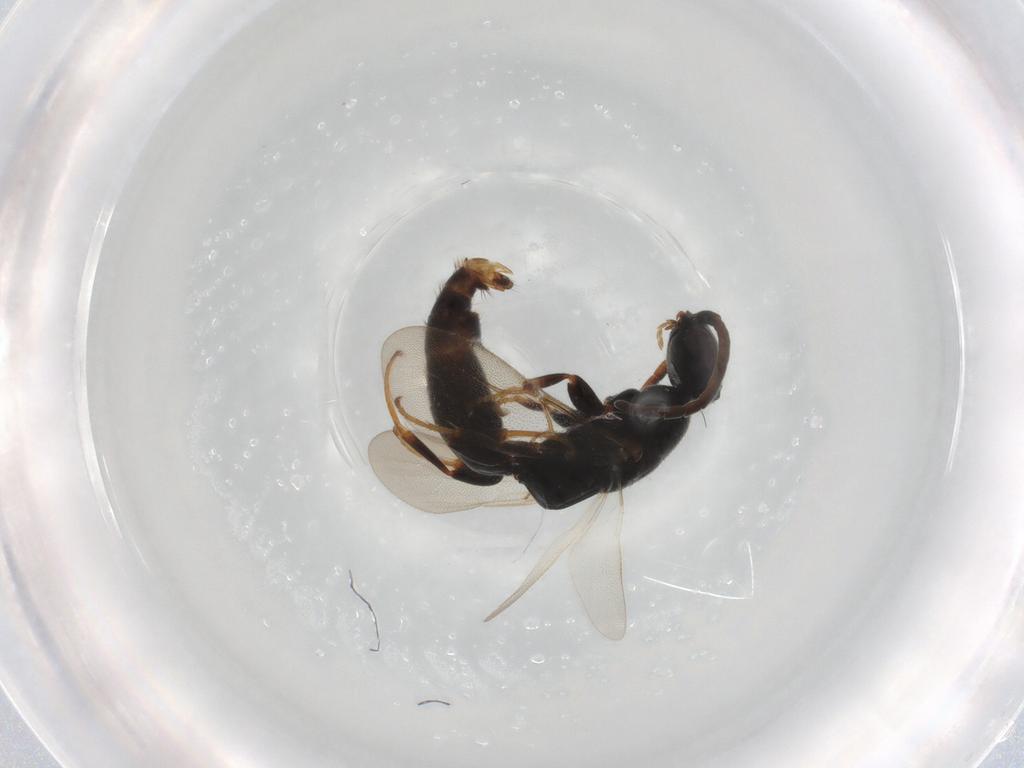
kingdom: Animalia
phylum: Arthropoda
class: Insecta
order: Hymenoptera
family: Bethylidae
